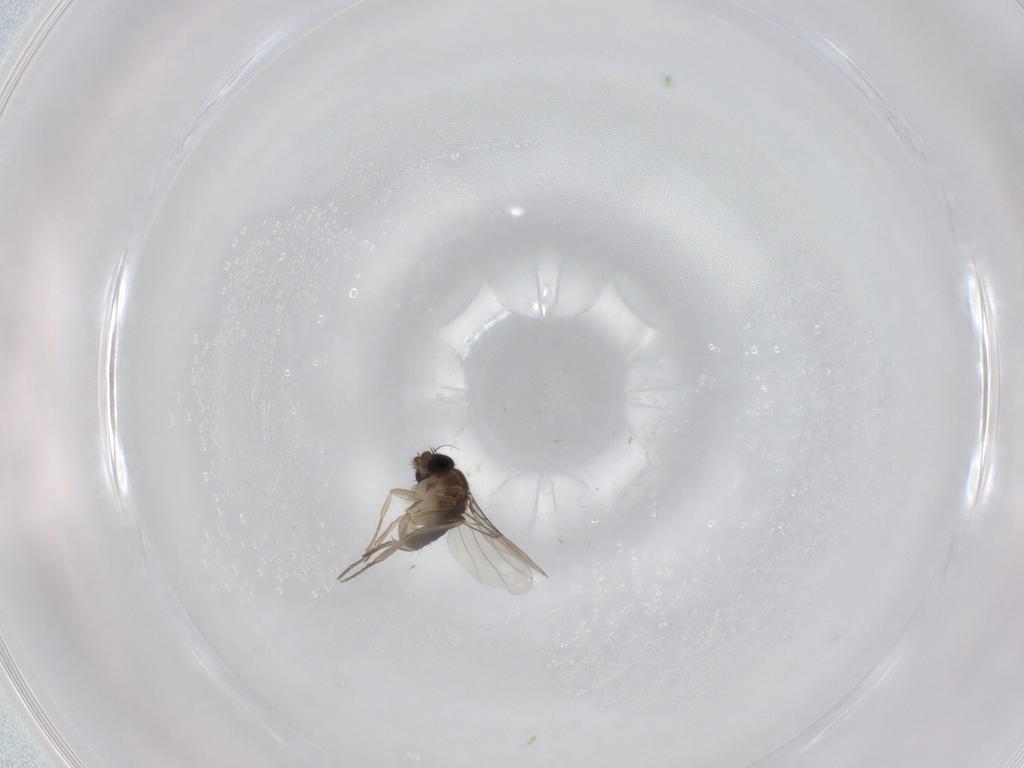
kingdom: Animalia
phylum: Arthropoda
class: Insecta
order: Diptera
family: Phoridae
